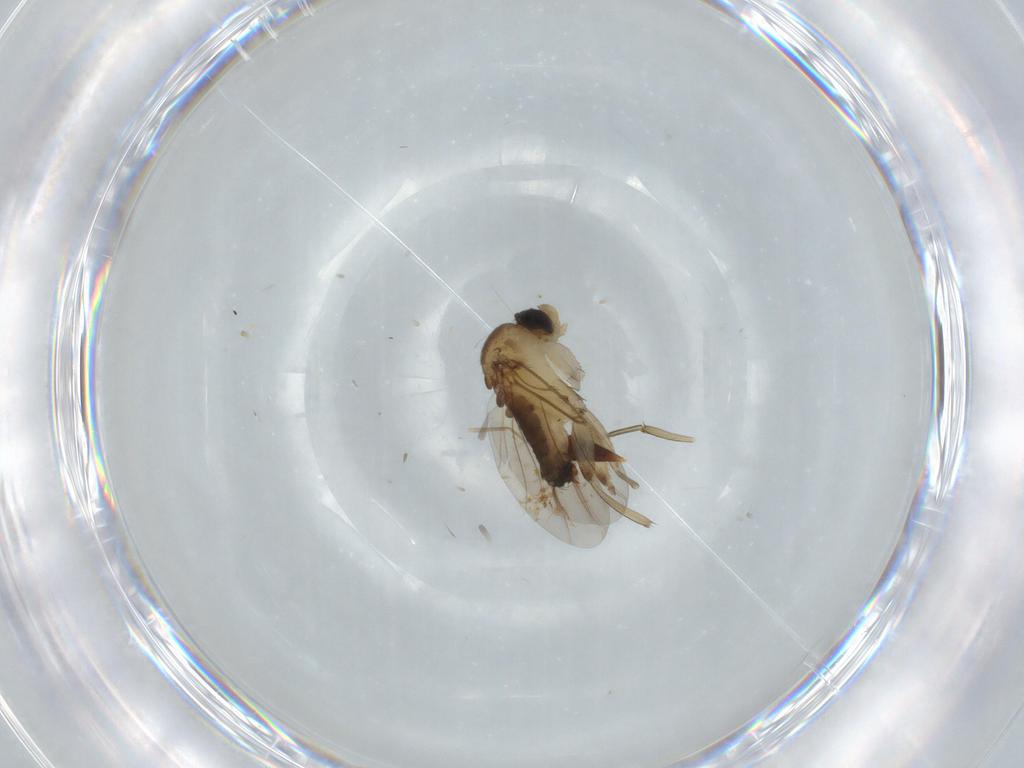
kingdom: Animalia
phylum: Arthropoda
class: Insecta
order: Diptera
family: Phoridae
